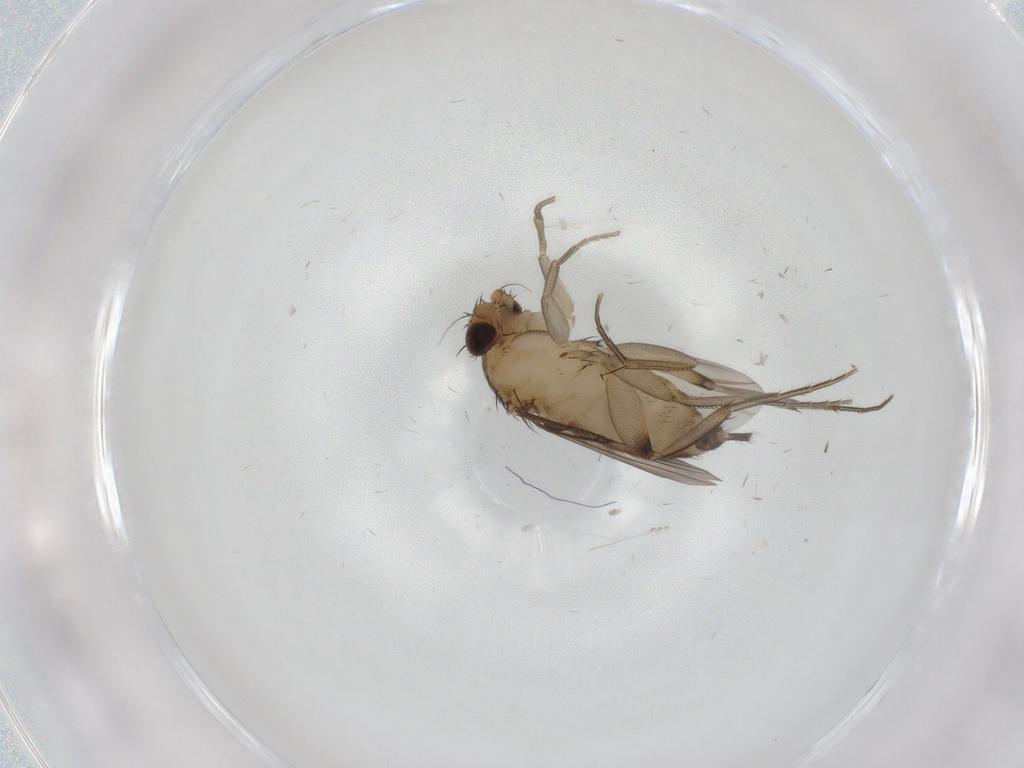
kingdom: Animalia
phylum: Arthropoda
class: Insecta
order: Diptera
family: Phoridae
